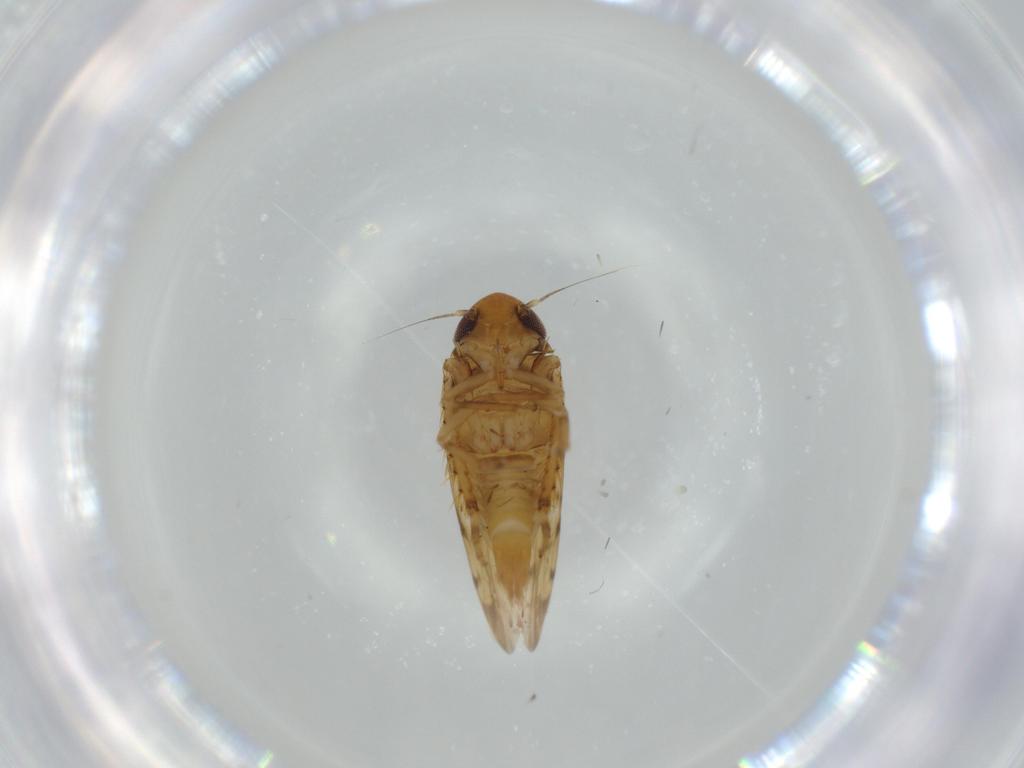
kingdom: Animalia
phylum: Arthropoda
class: Insecta
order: Hemiptera
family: Cicadellidae
